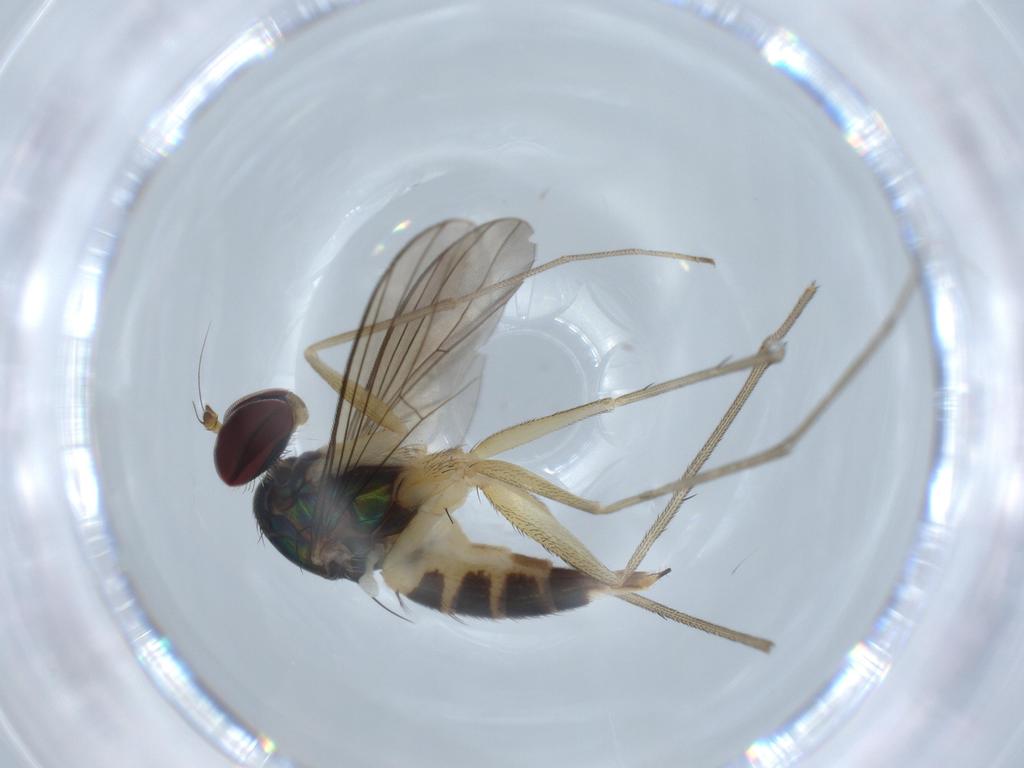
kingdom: Animalia
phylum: Arthropoda
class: Insecta
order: Diptera
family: Dolichopodidae
